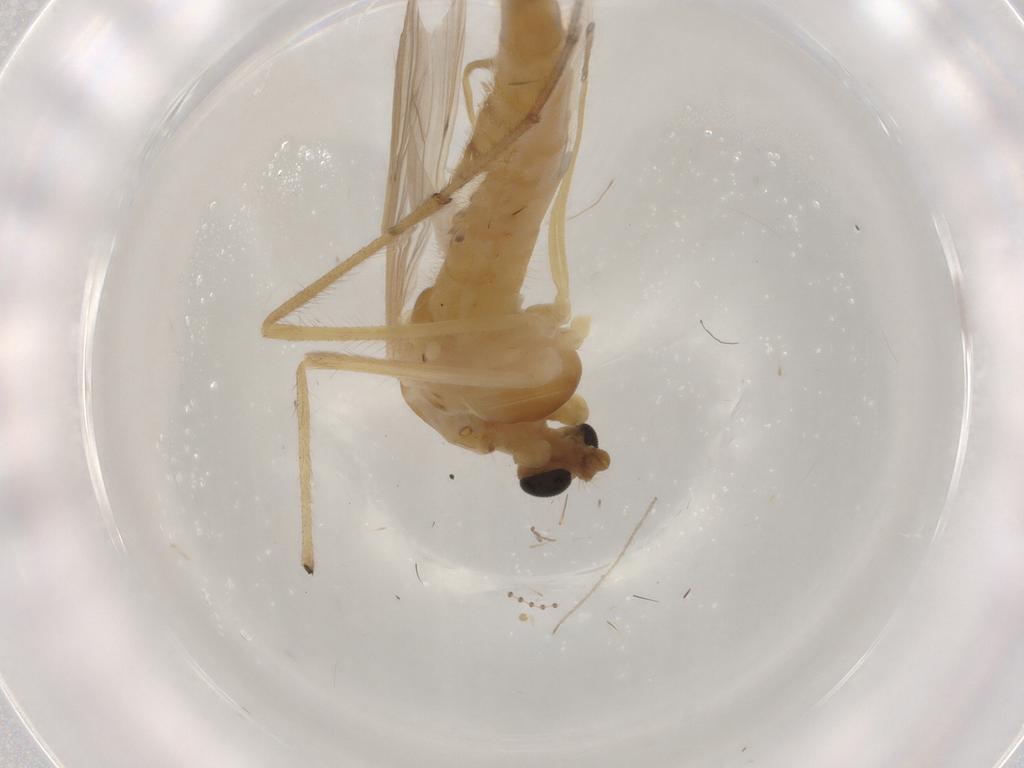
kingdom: Animalia
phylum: Arthropoda
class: Insecta
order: Diptera
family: Chironomidae
